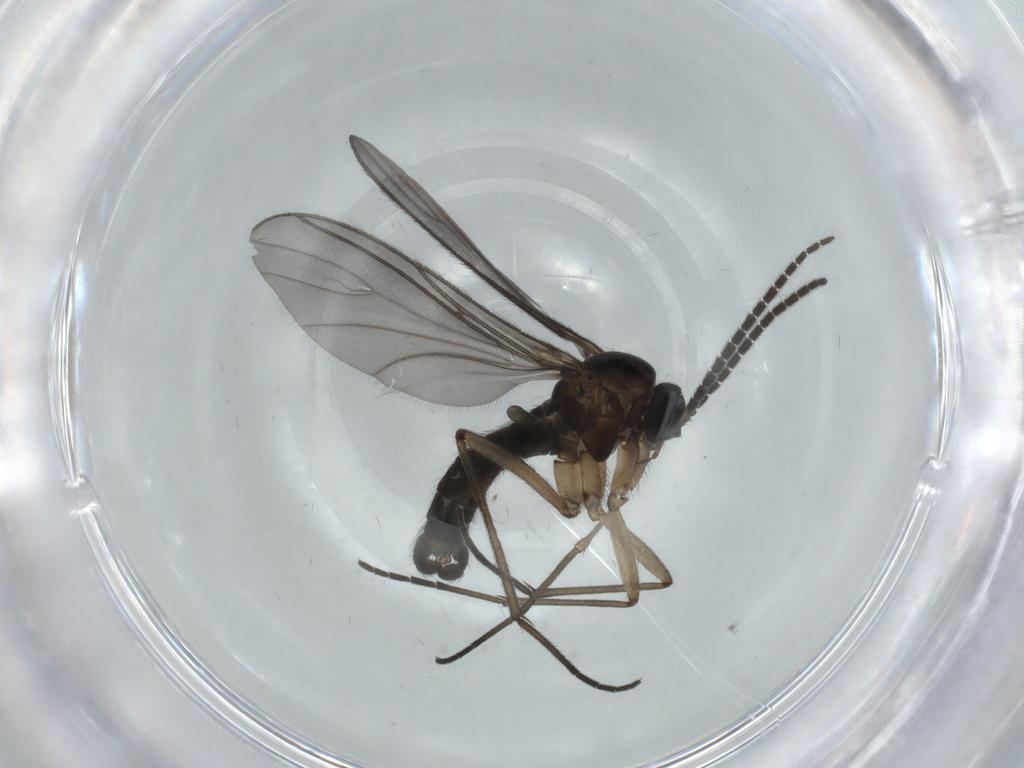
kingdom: Animalia
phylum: Arthropoda
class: Insecta
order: Diptera
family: Sciaridae
